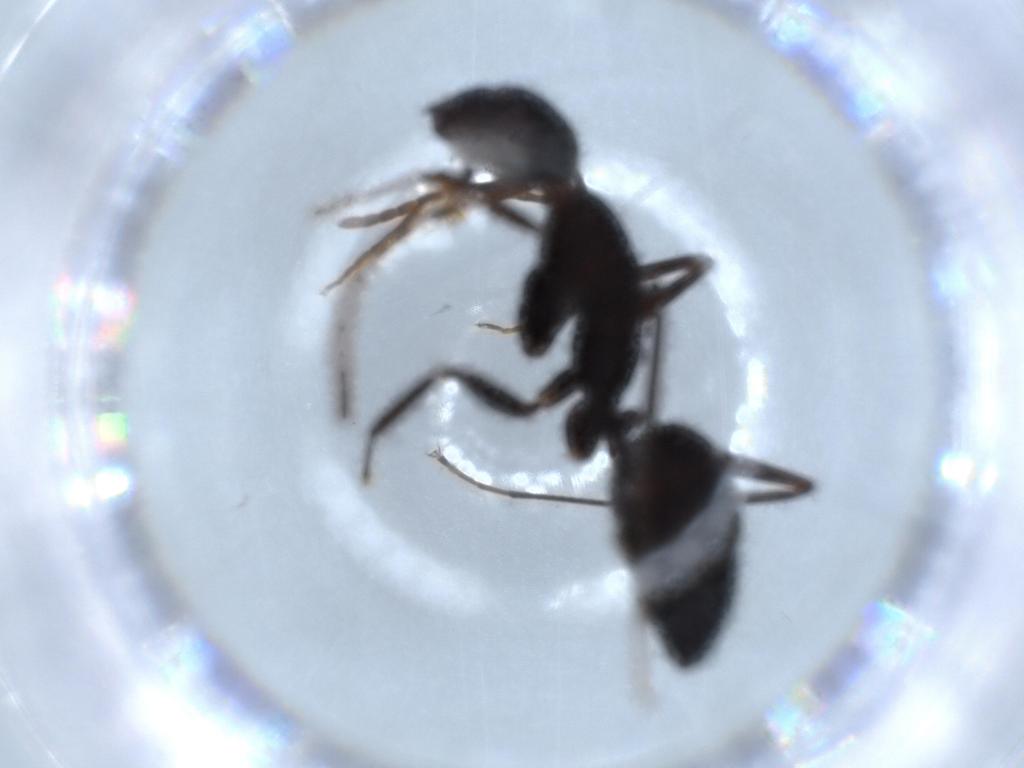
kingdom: Animalia
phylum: Arthropoda
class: Insecta
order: Hymenoptera
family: Formicidae
